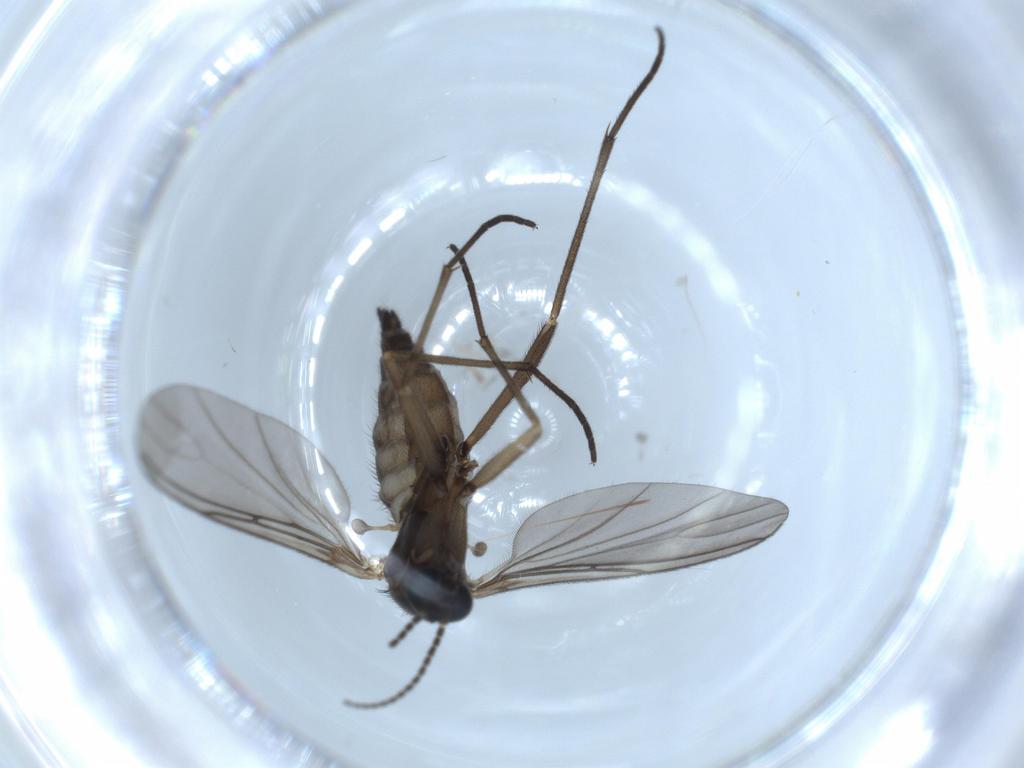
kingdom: Animalia
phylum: Arthropoda
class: Insecta
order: Diptera
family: Sciaridae
